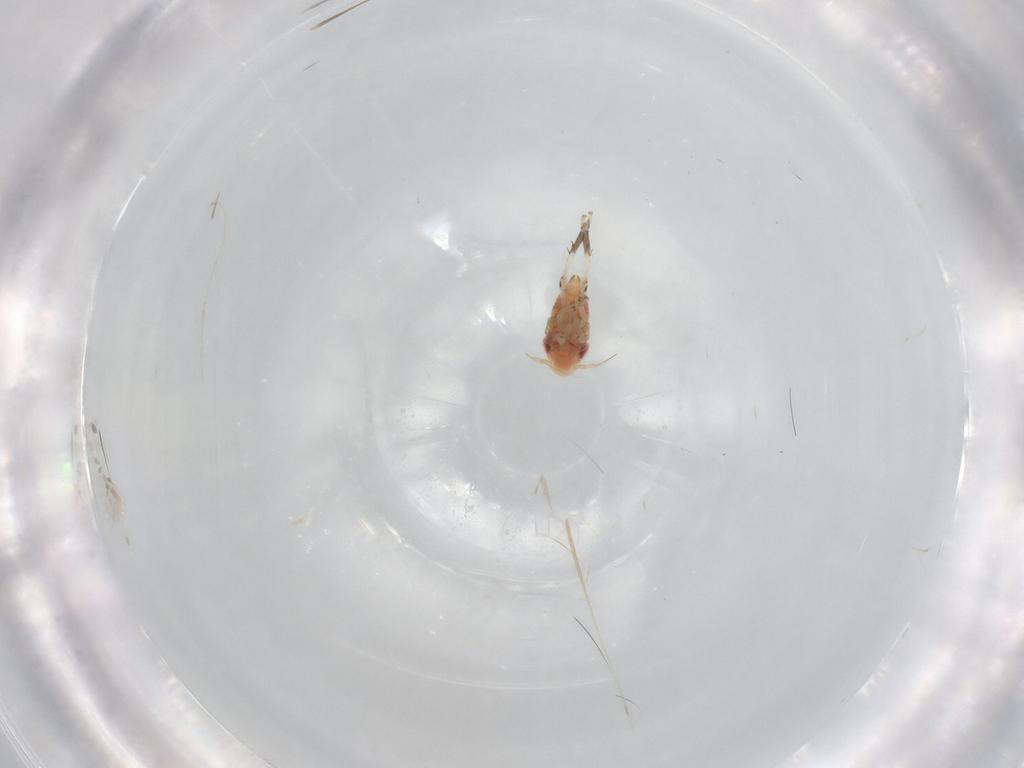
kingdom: Animalia
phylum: Arthropoda
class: Insecta
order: Hemiptera
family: Cicadellidae
